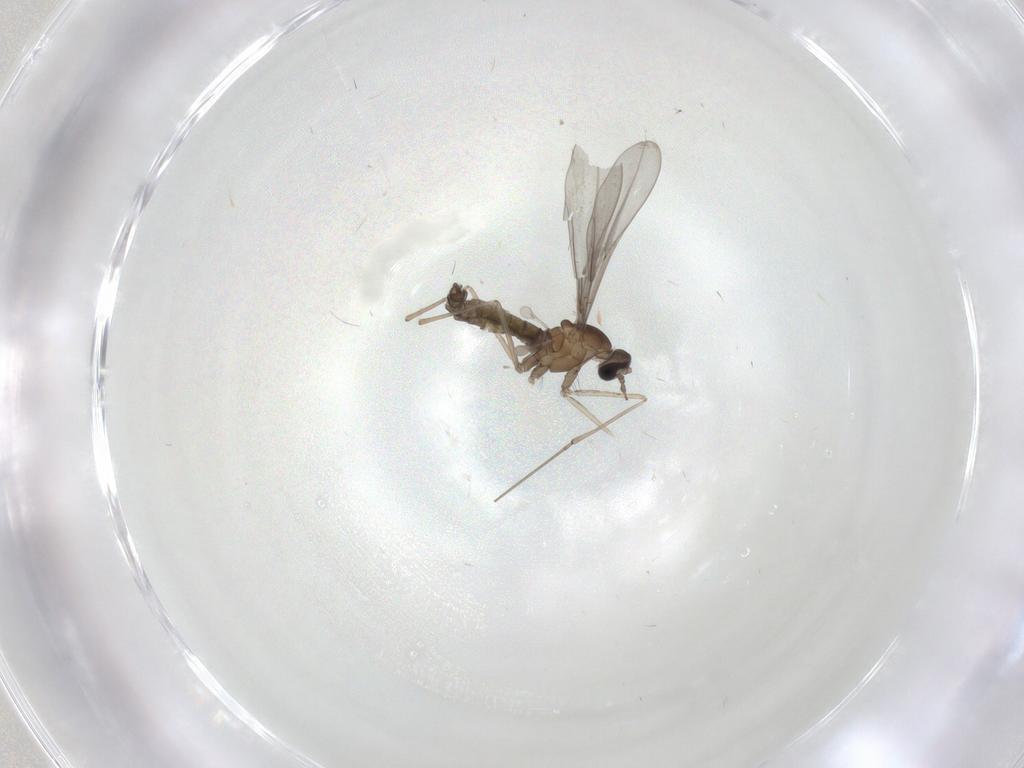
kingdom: Animalia
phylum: Arthropoda
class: Insecta
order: Diptera
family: Chironomidae
